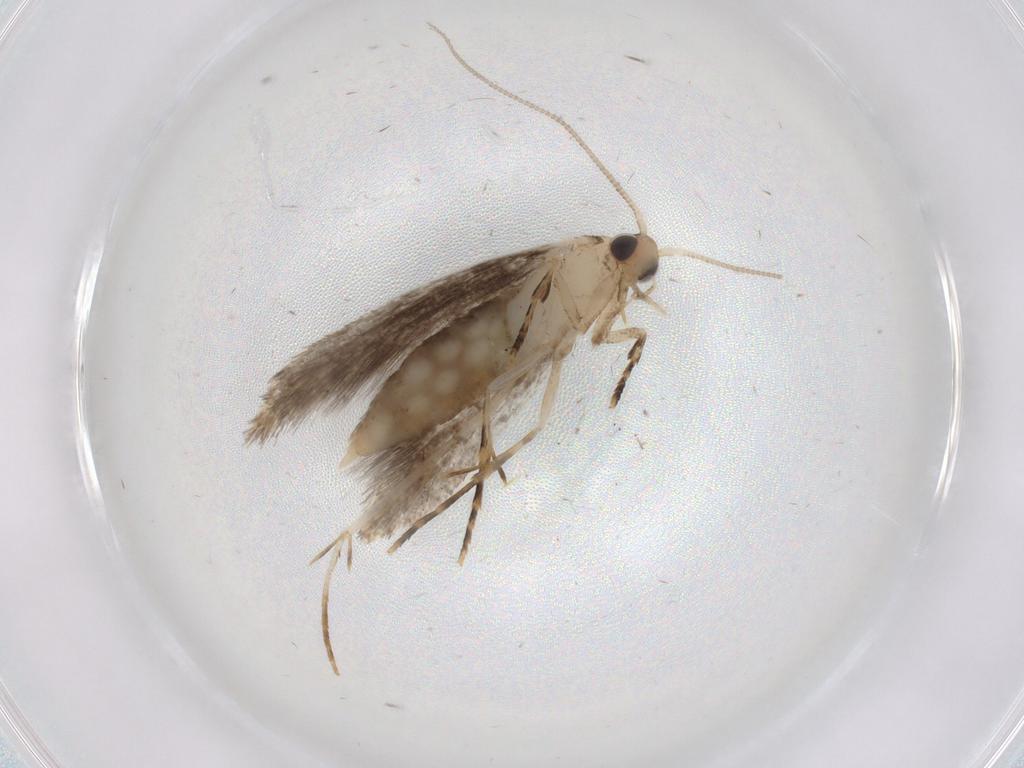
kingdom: Animalia
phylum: Arthropoda
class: Insecta
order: Lepidoptera
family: Tineidae
